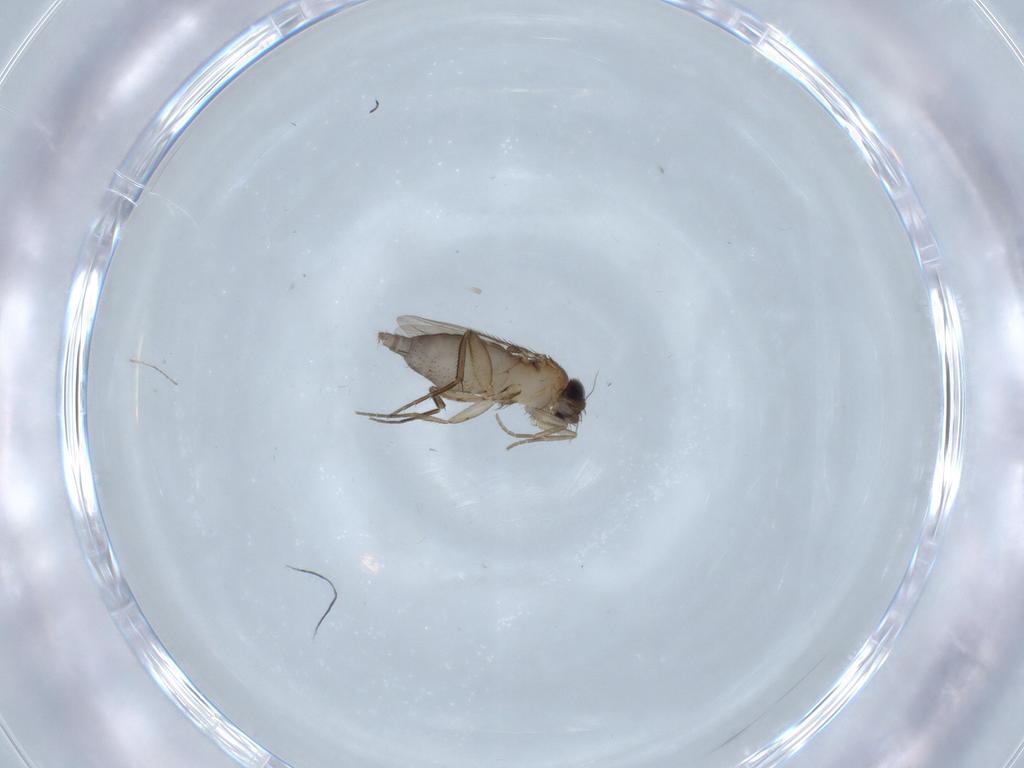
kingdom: Animalia
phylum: Arthropoda
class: Insecta
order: Diptera
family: Phoridae
